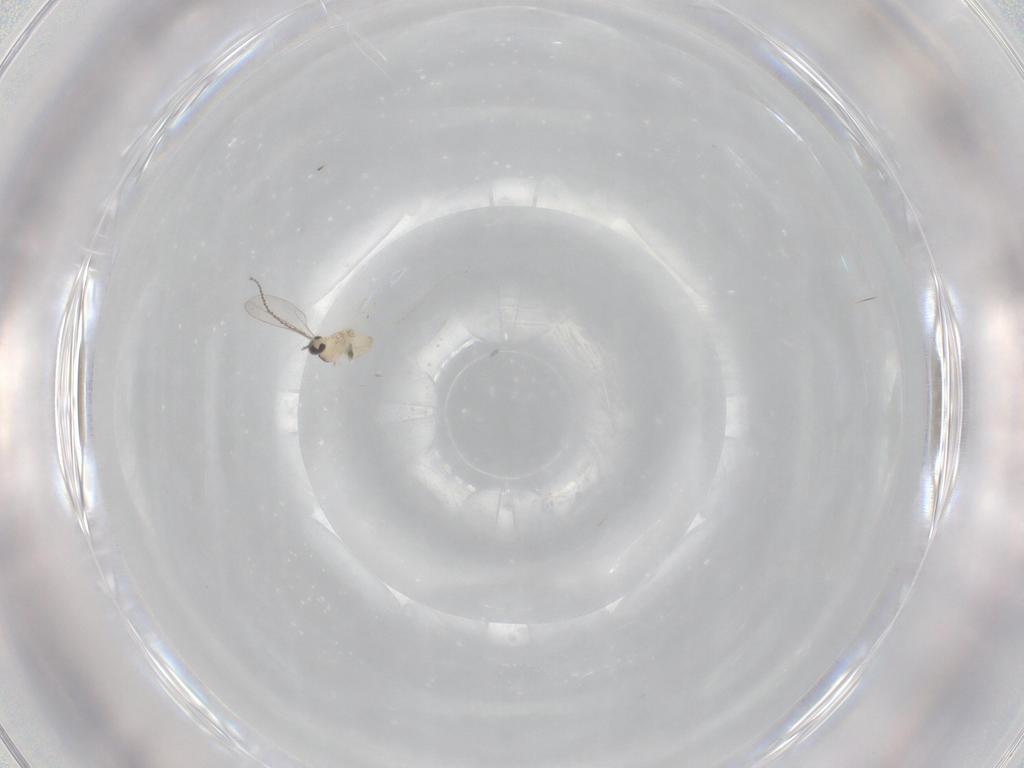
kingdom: Animalia
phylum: Arthropoda
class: Insecta
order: Diptera
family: Cecidomyiidae
